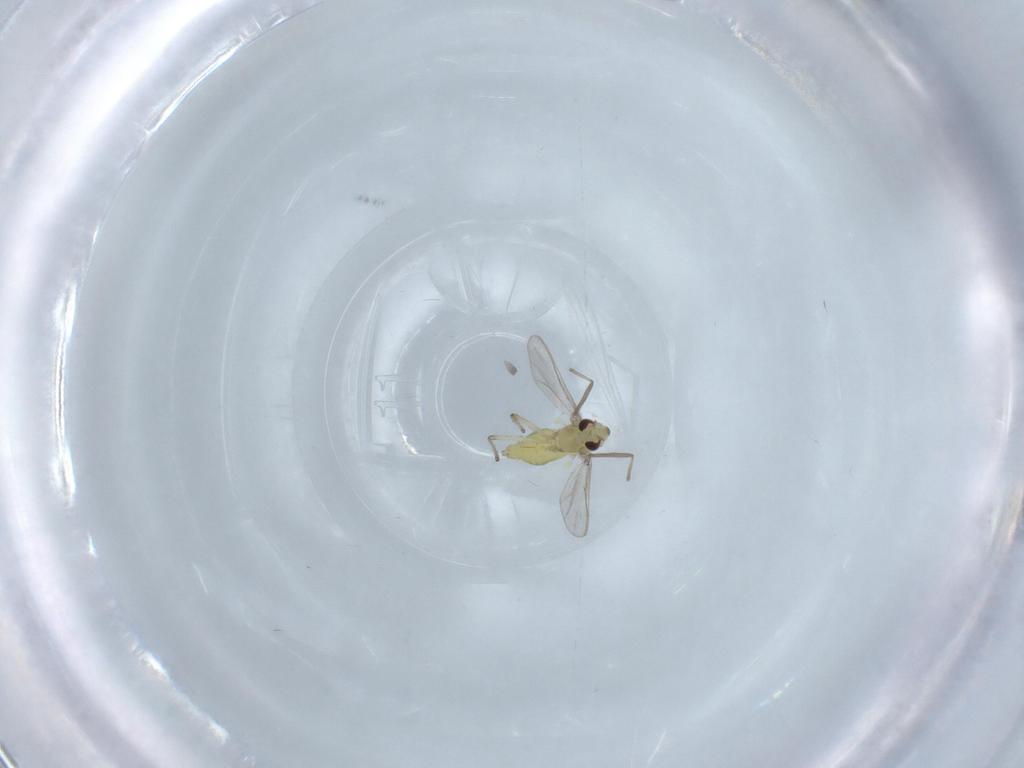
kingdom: Animalia
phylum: Arthropoda
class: Insecta
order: Diptera
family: Chironomidae
